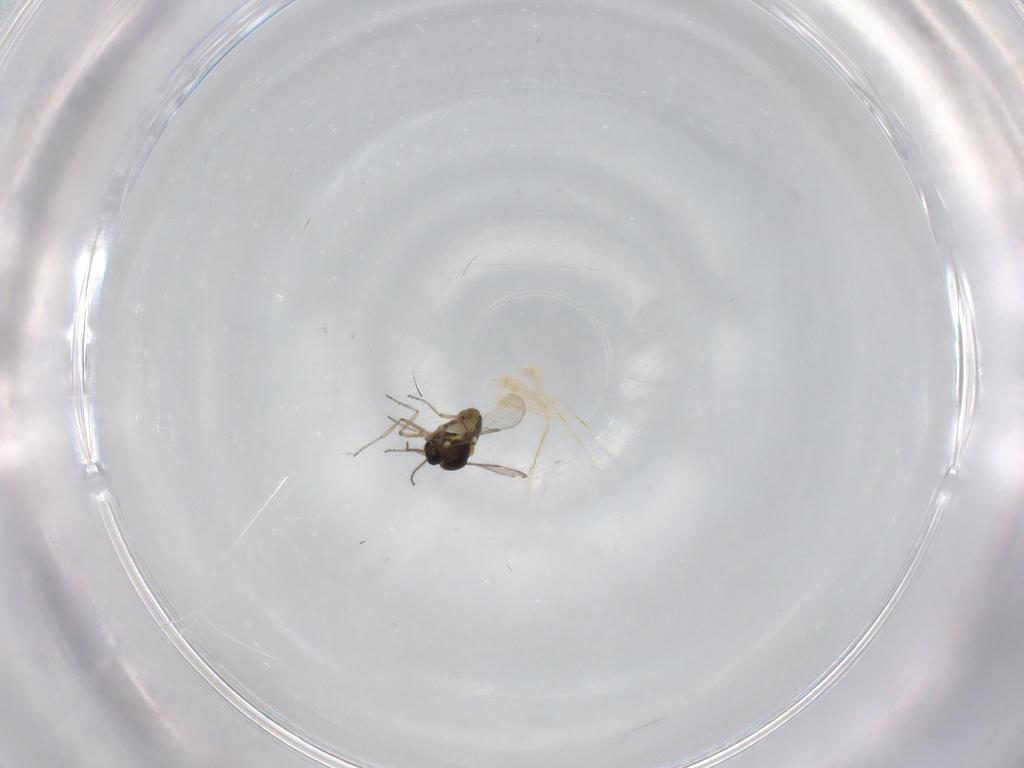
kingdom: Animalia
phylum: Arthropoda
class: Insecta
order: Diptera
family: Ceratopogonidae
